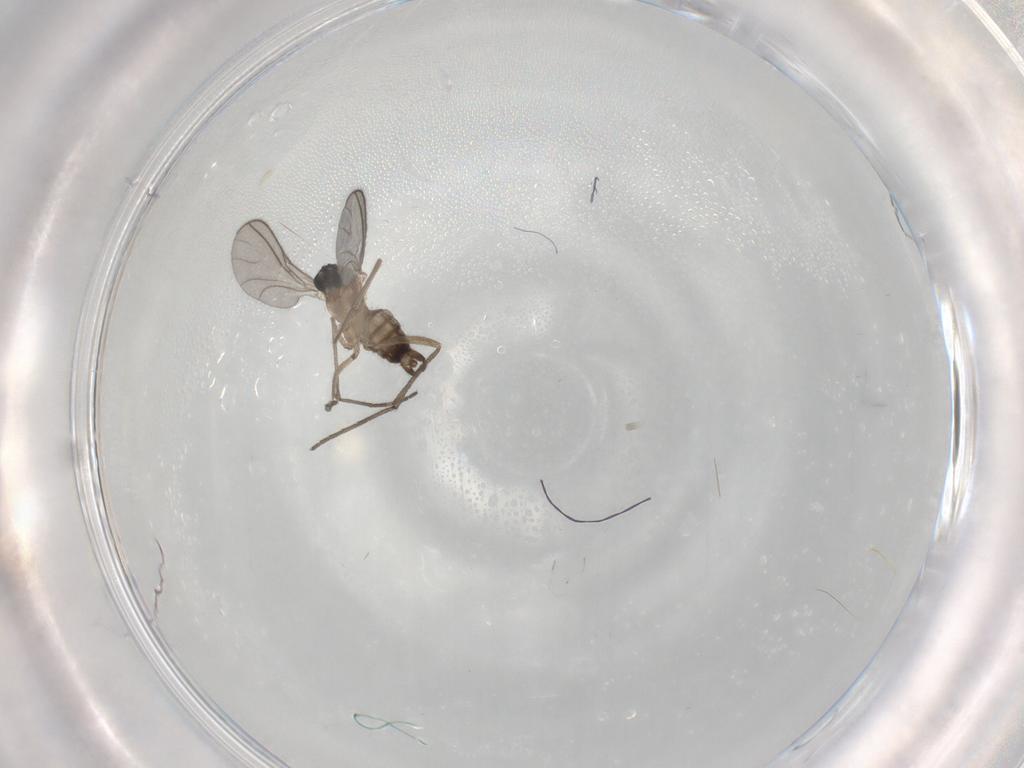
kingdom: Animalia
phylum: Arthropoda
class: Insecta
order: Diptera
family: Sciaridae
